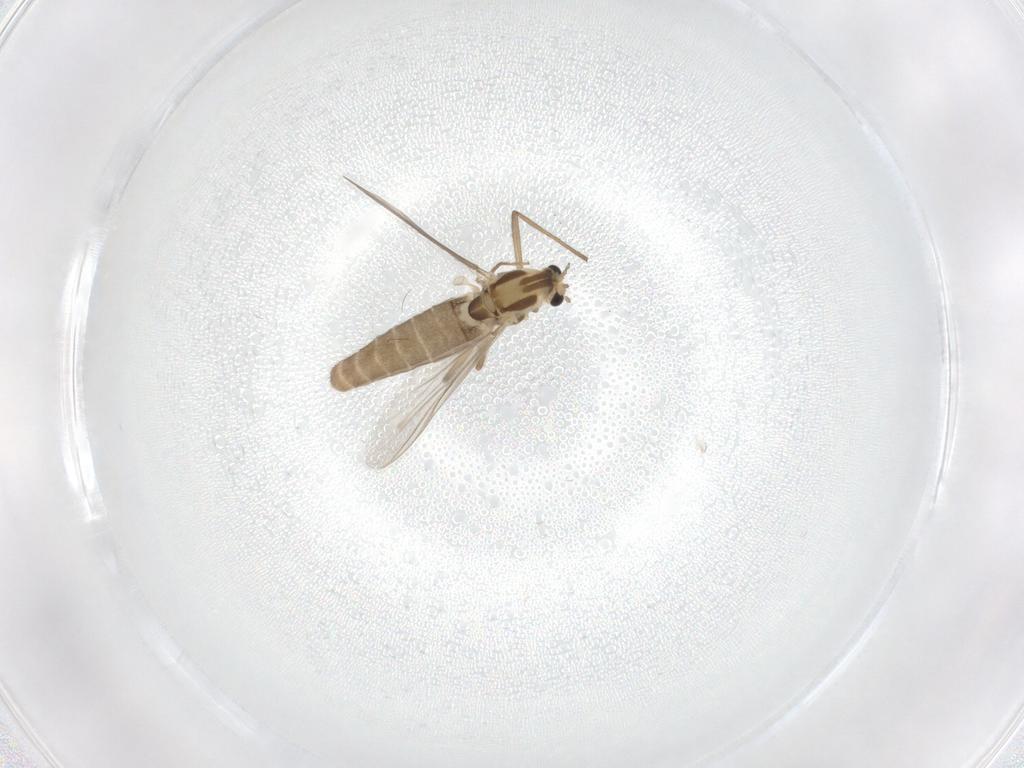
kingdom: Animalia
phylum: Arthropoda
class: Insecta
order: Diptera
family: Chironomidae
